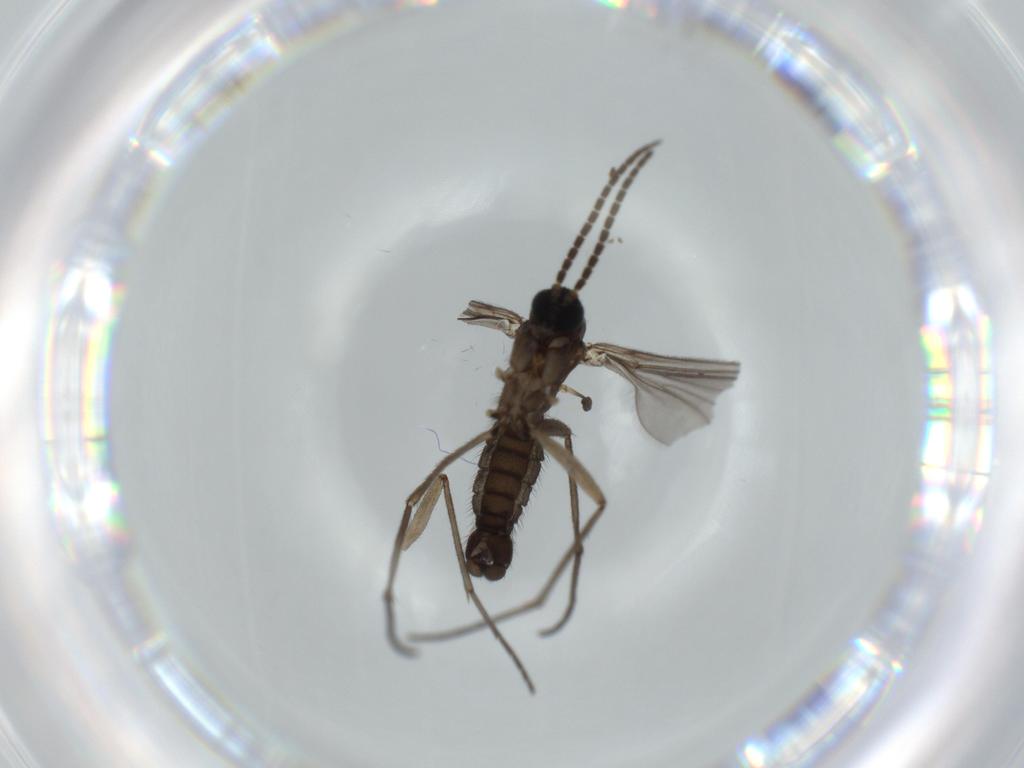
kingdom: Animalia
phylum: Arthropoda
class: Insecta
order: Diptera
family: Sciaridae
